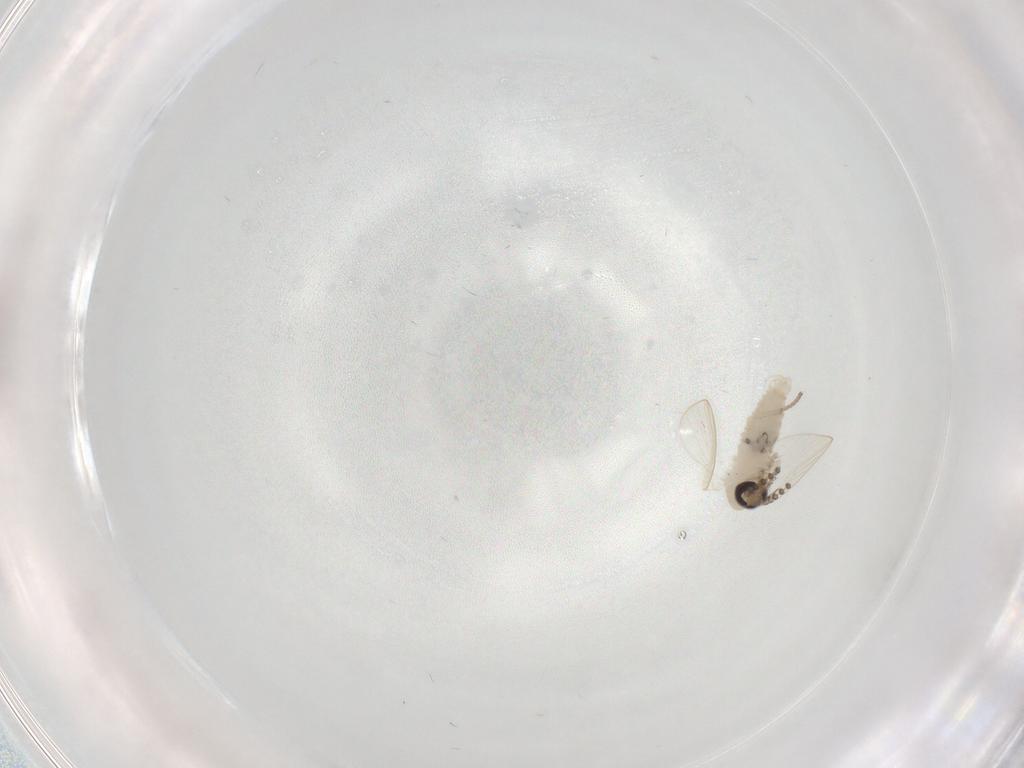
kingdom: Animalia
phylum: Arthropoda
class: Insecta
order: Diptera
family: Psychodidae
